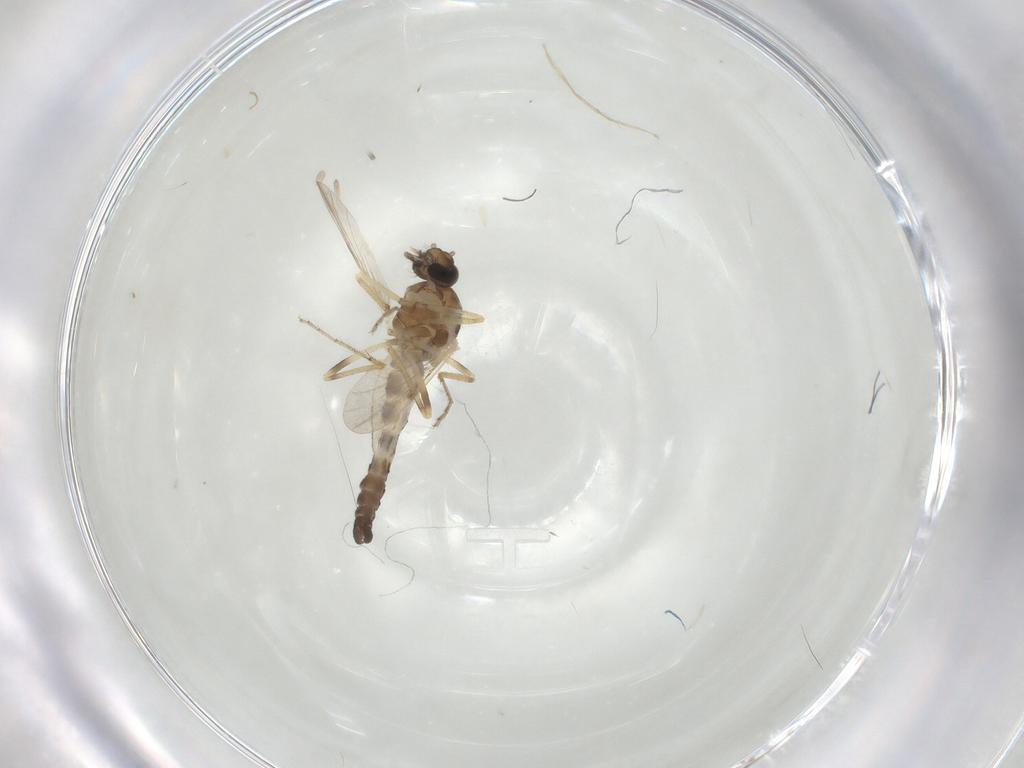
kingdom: Animalia
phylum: Arthropoda
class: Insecta
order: Diptera
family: Ceratopogonidae
